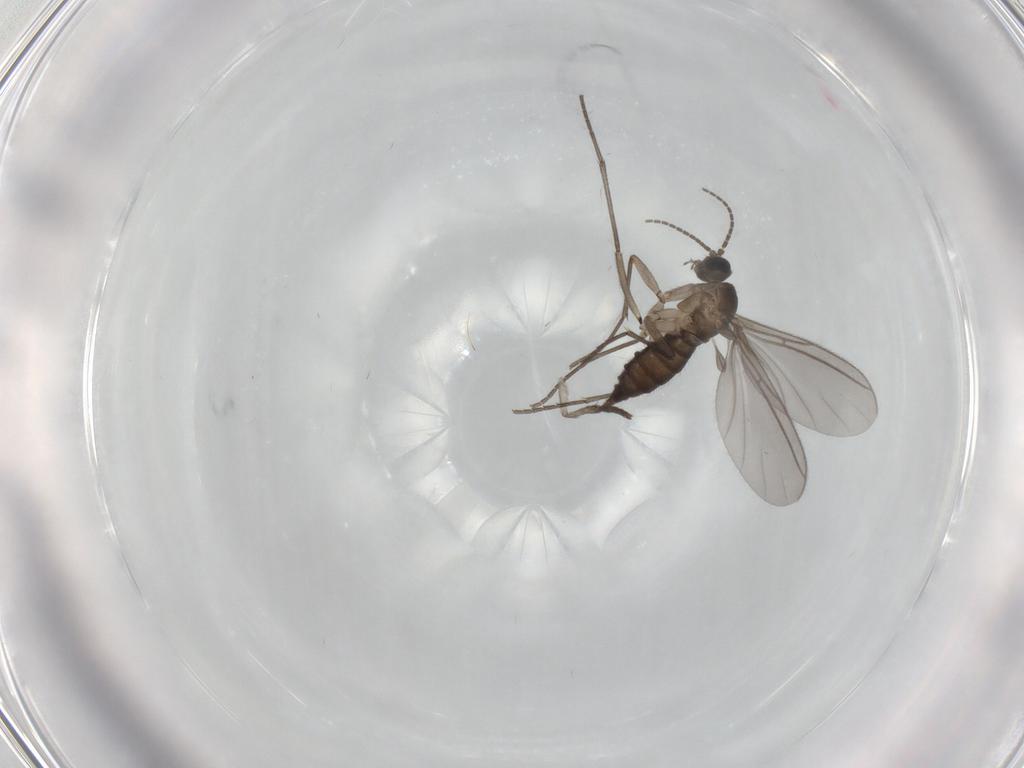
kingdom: Animalia
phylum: Arthropoda
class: Insecta
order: Diptera
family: Sciaridae
